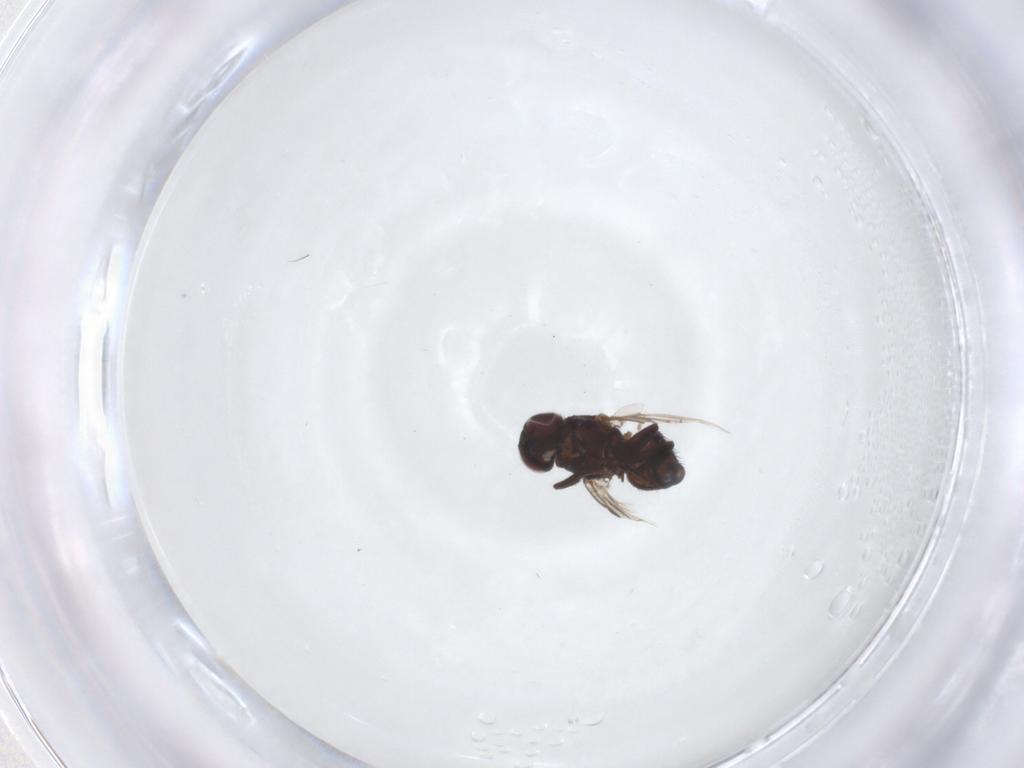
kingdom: Animalia
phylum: Arthropoda
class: Insecta
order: Diptera
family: Agromyzidae
